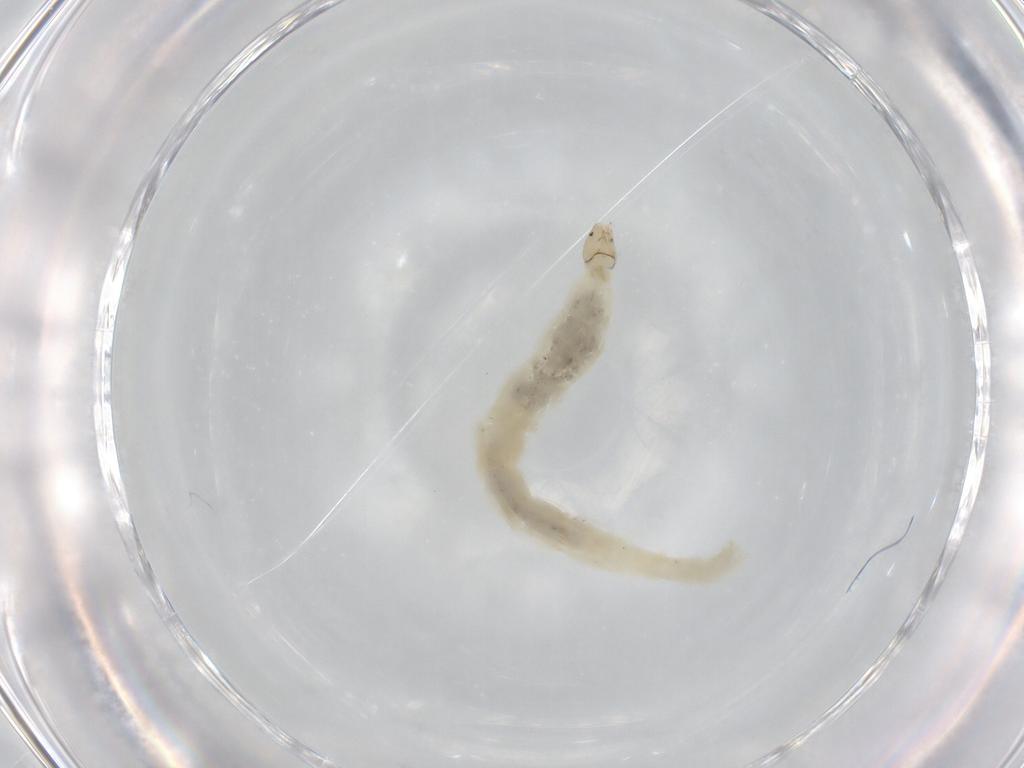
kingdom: Animalia
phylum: Arthropoda
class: Insecta
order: Diptera
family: Chironomidae
